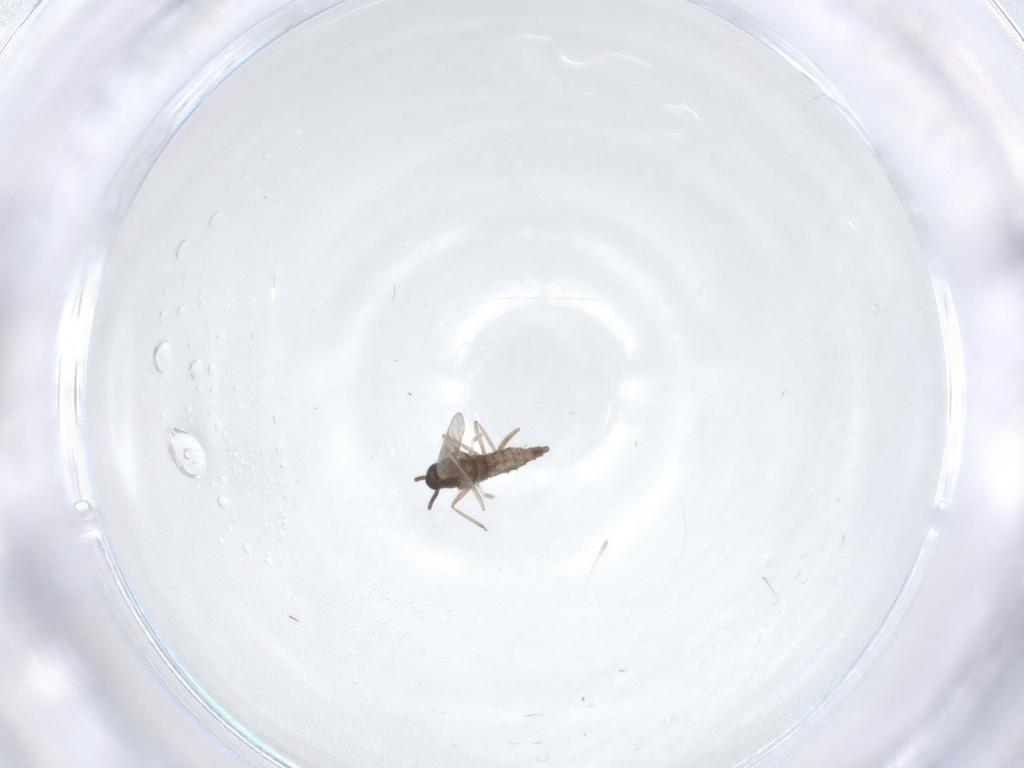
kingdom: Animalia
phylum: Arthropoda
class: Insecta
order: Diptera
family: Cecidomyiidae
